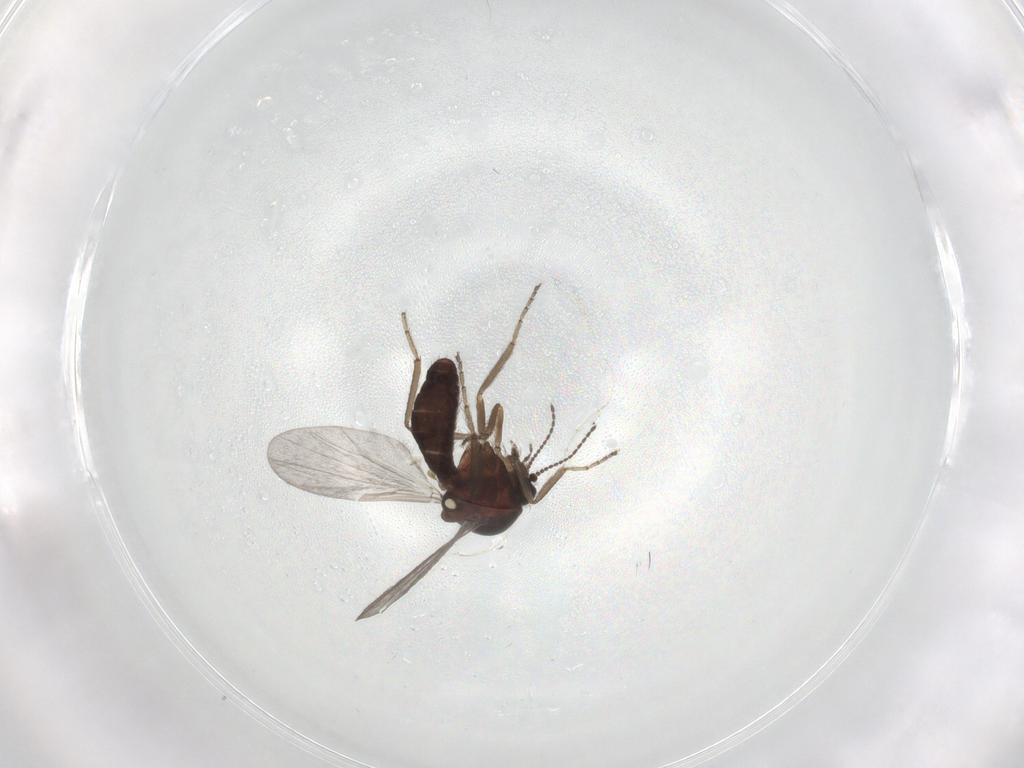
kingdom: Animalia
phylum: Arthropoda
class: Insecta
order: Diptera
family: Ceratopogonidae
